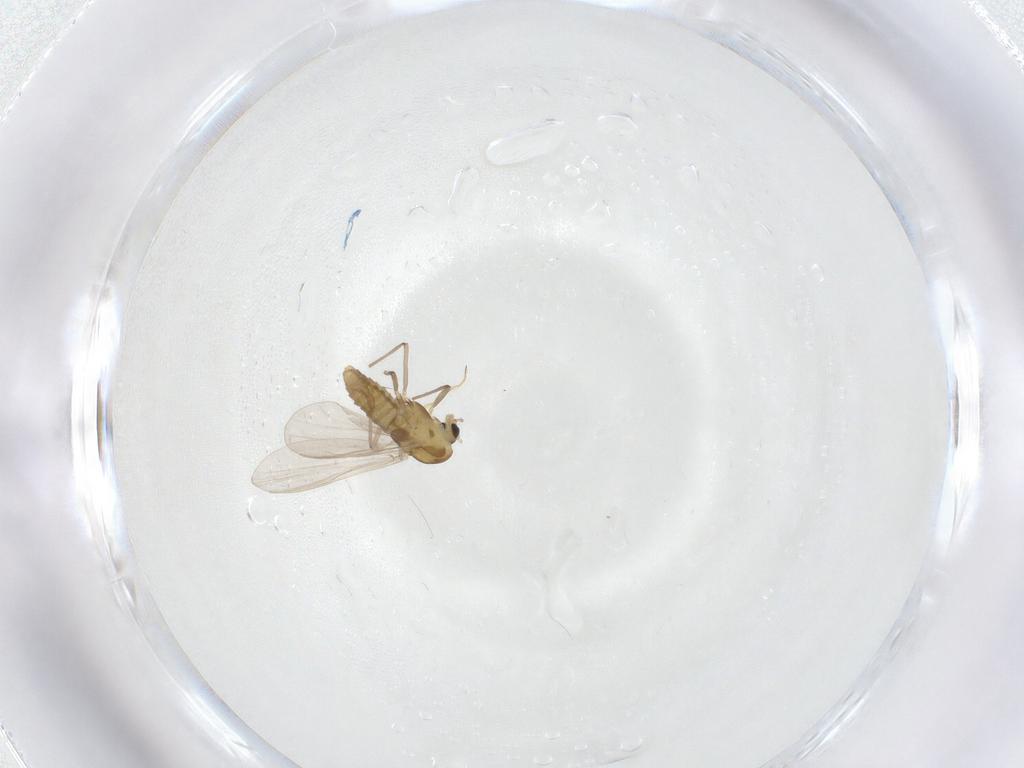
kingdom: Animalia
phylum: Arthropoda
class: Insecta
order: Diptera
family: Chironomidae
